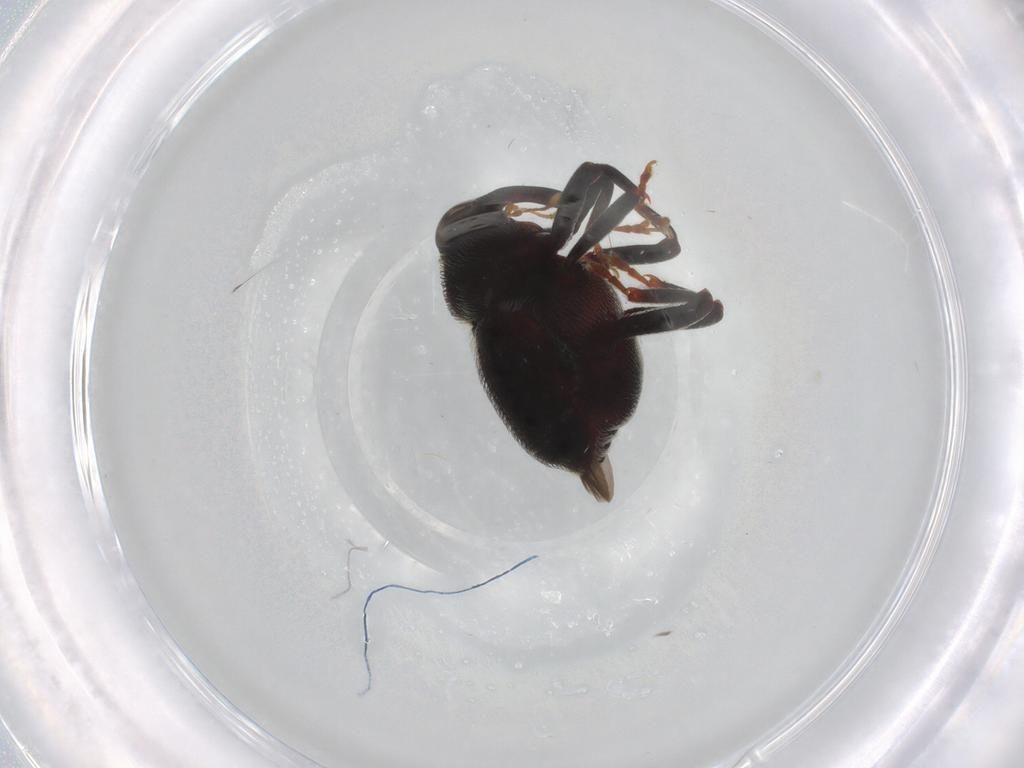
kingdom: Animalia
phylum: Arthropoda
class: Insecta
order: Coleoptera
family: Curculionidae
